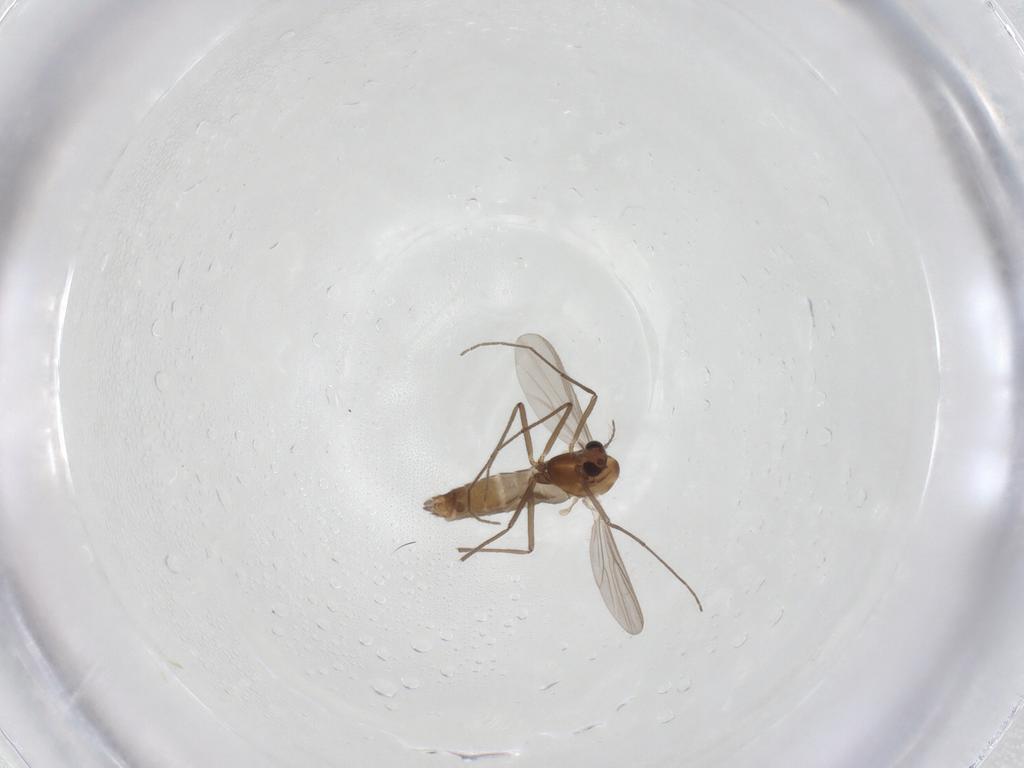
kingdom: Animalia
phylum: Arthropoda
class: Insecta
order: Diptera
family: Chironomidae
